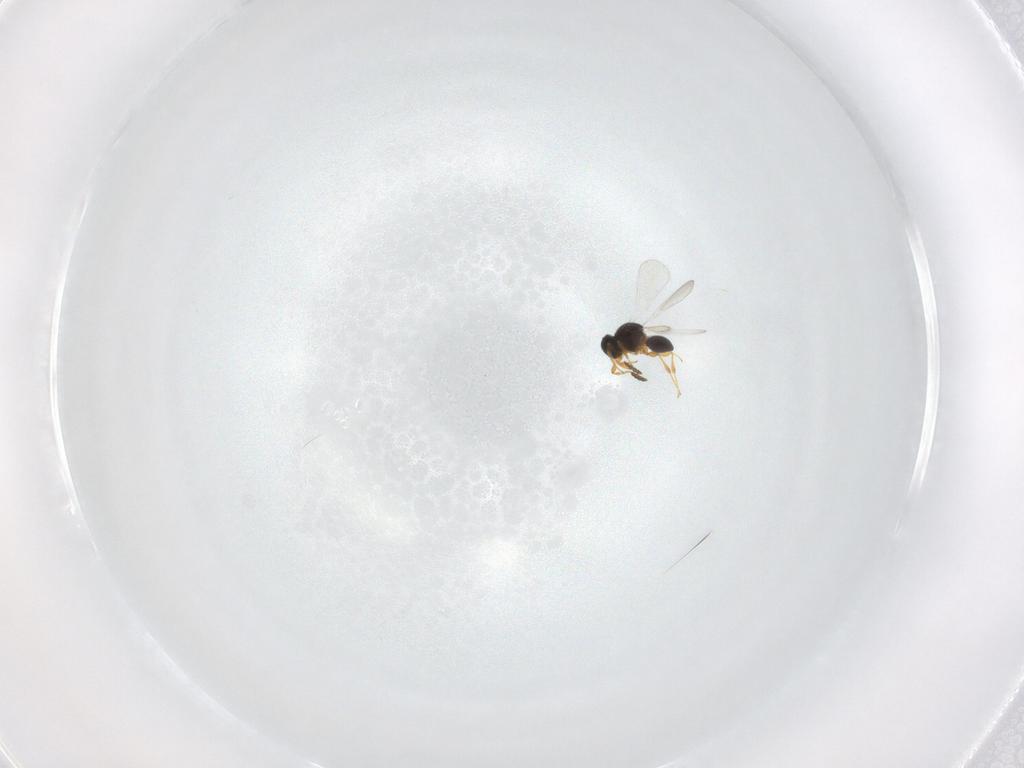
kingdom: Animalia
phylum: Arthropoda
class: Insecta
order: Hymenoptera
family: Platygastridae
